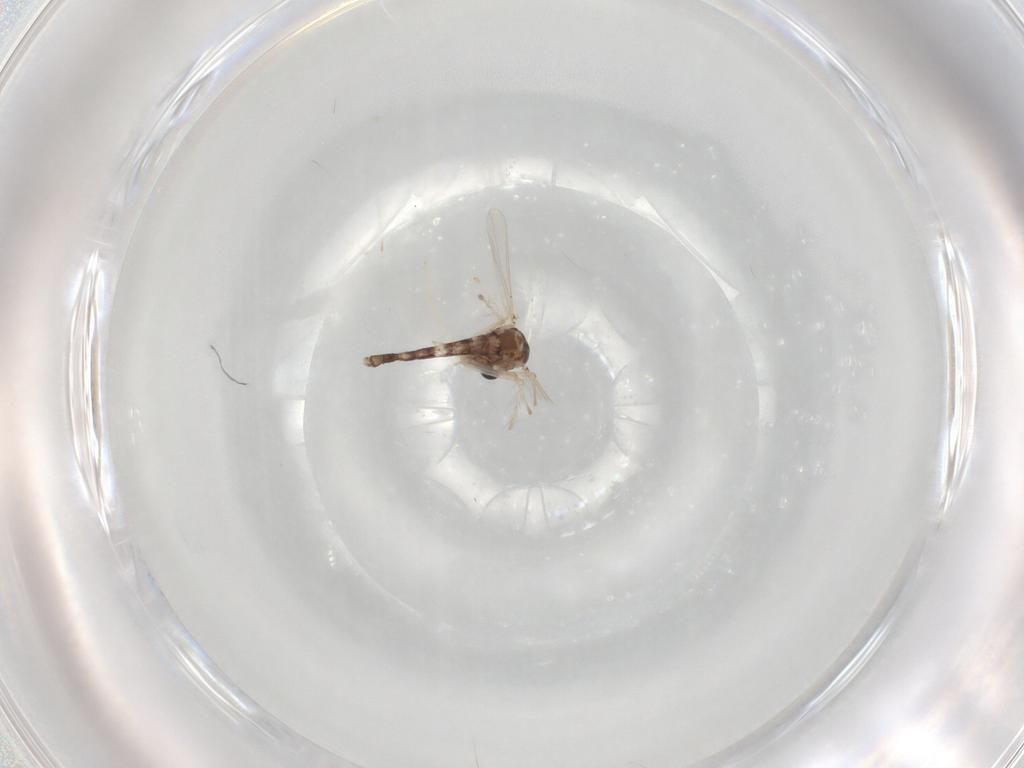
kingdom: Animalia
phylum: Arthropoda
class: Insecta
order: Diptera
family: Chironomidae
